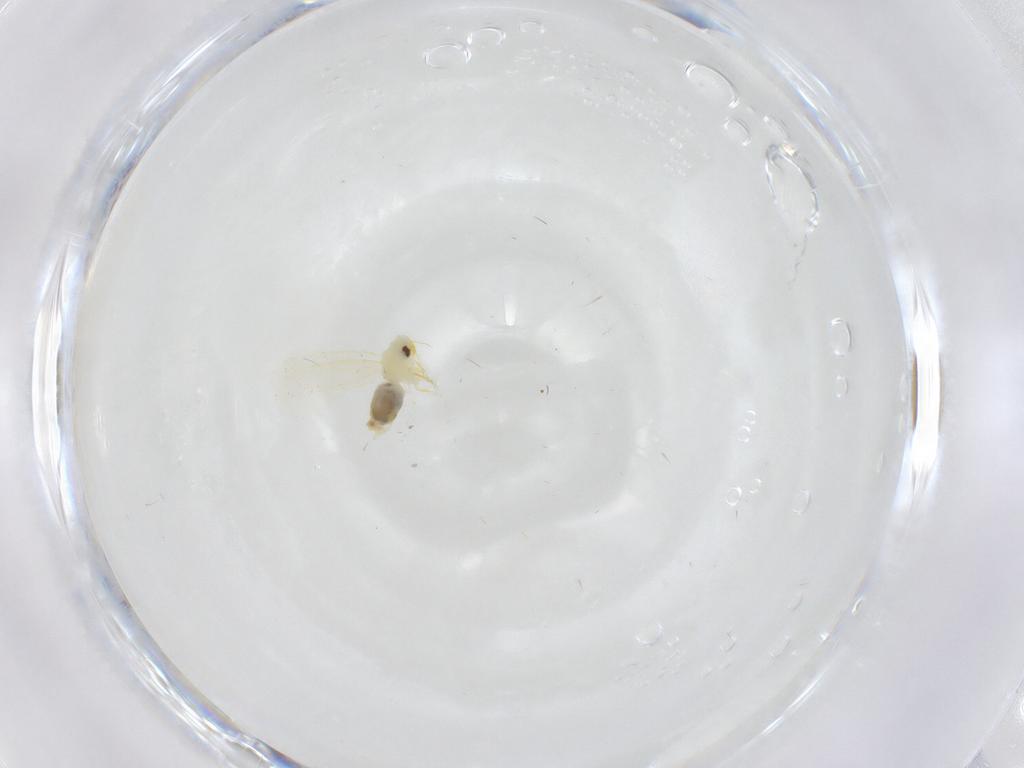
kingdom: Animalia
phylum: Arthropoda
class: Insecta
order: Hemiptera
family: Aleyrodidae
